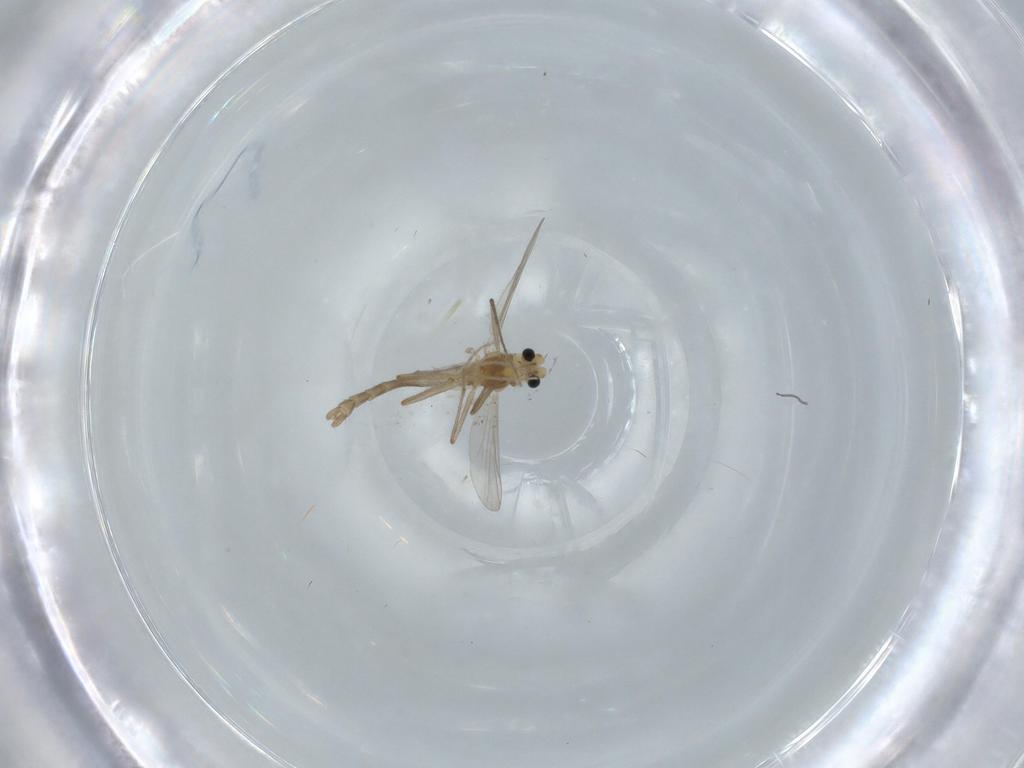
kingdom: Animalia
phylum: Arthropoda
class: Insecta
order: Diptera
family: Chironomidae
